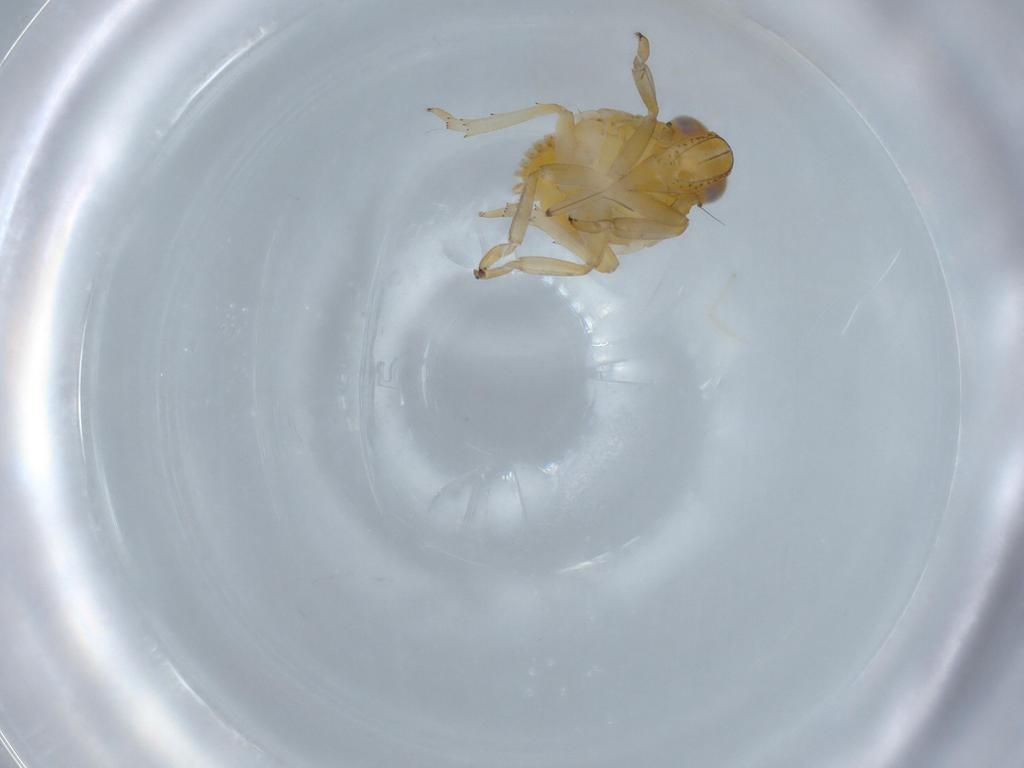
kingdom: Animalia
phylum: Arthropoda
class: Insecta
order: Hemiptera
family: Issidae
